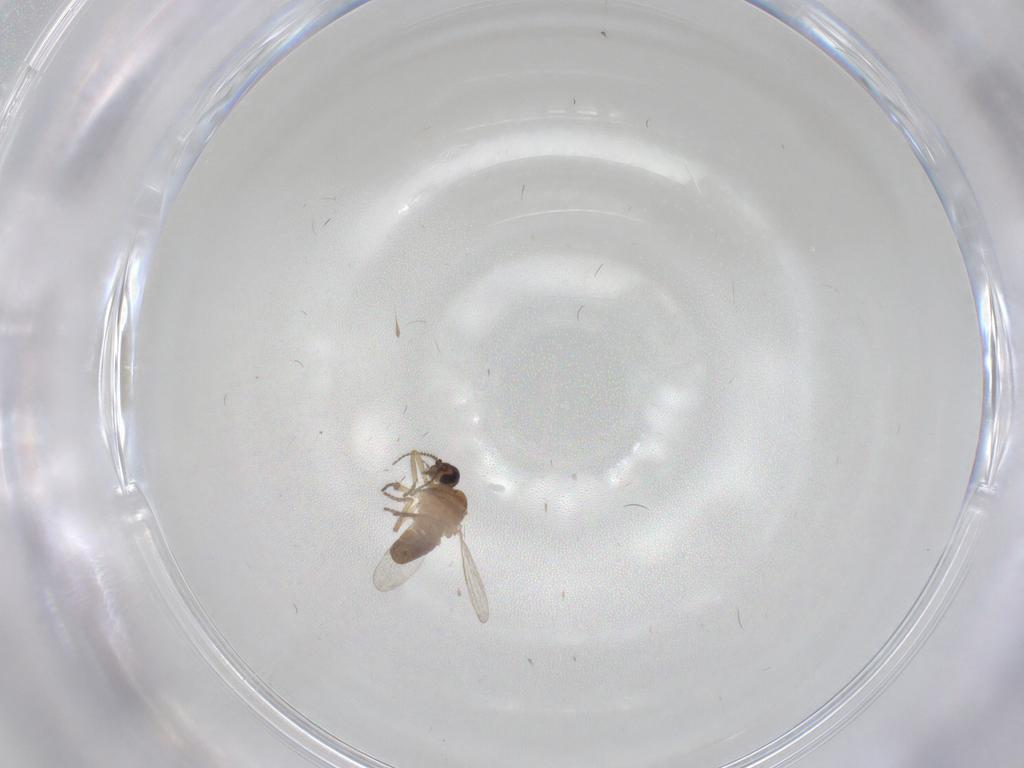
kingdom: Animalia
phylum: Arthropoda
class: Insecta
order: Diptera
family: Ceratopogonidae
